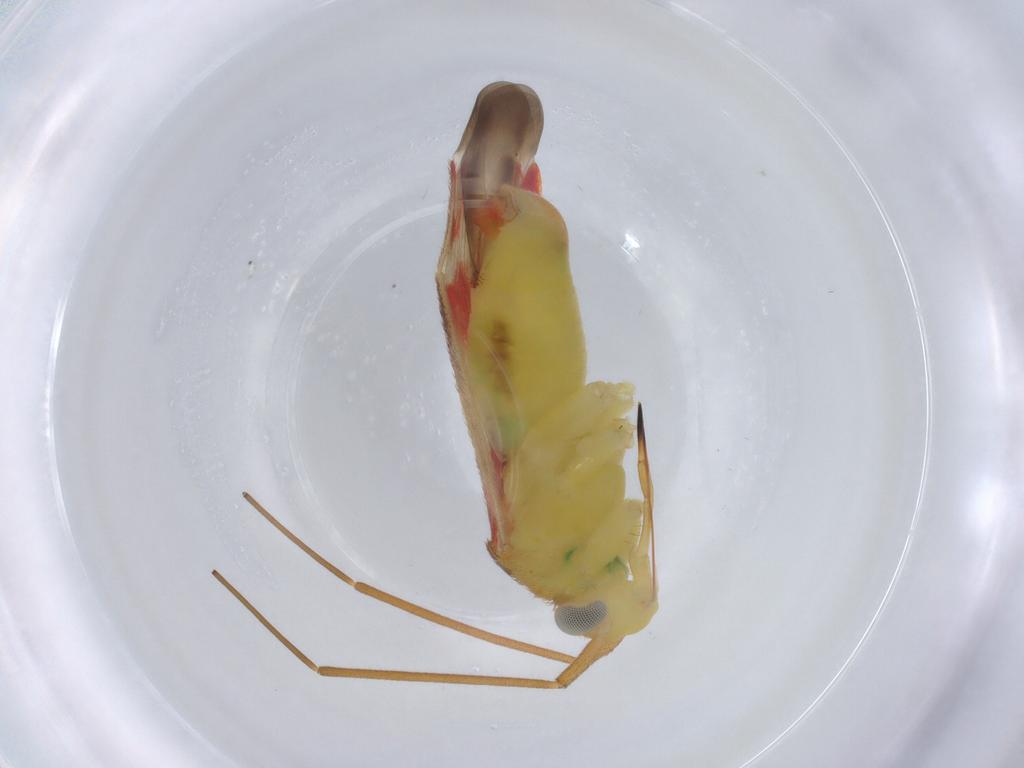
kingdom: Animalia
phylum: Arthropoda
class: Insecta
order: Hemiptera
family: Miridae
